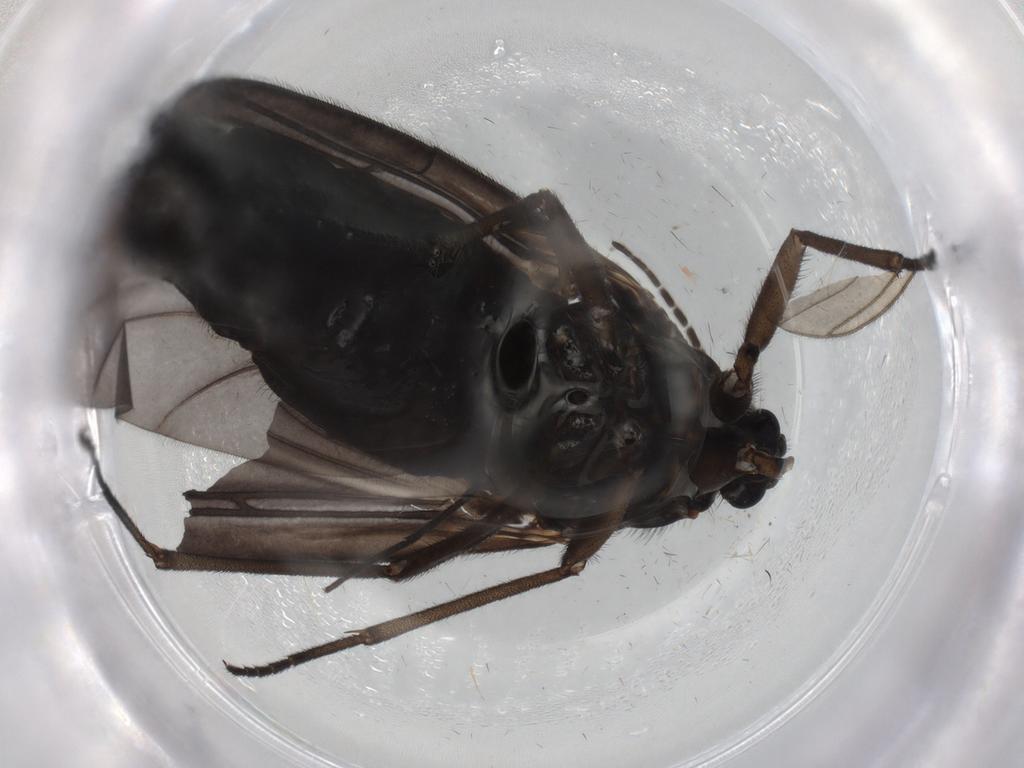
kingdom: Animalia
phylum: Arthropoda
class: Insecta
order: Diptera
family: Sciaridae
